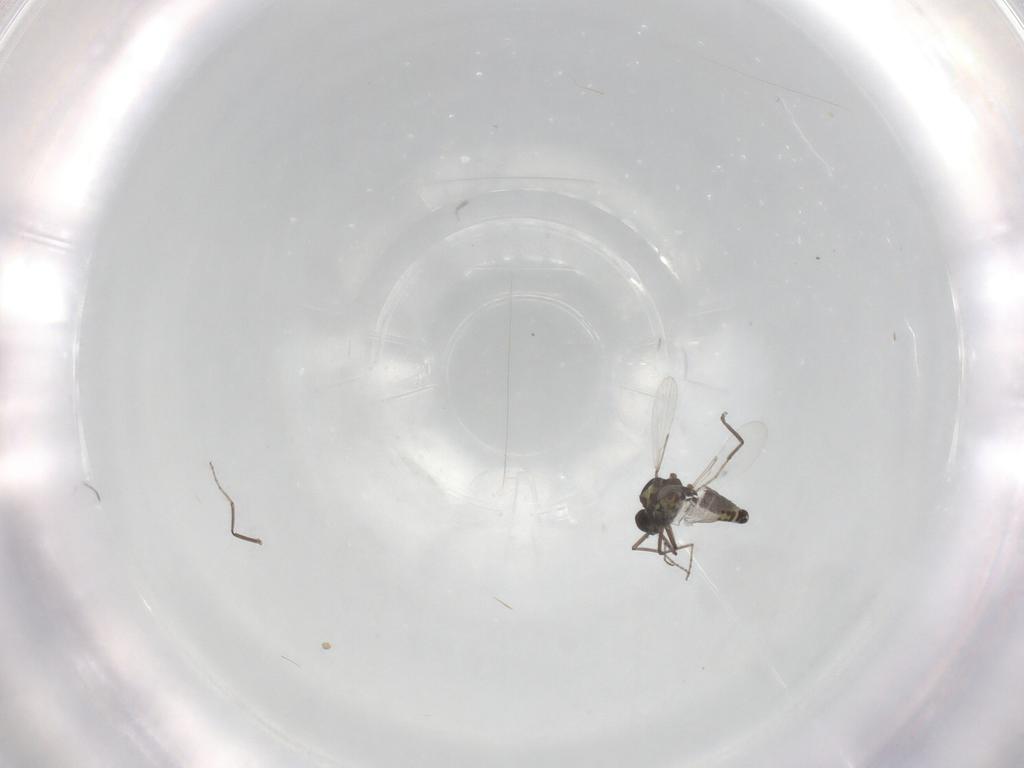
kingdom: Animalia
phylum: Arthropoda
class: Insecta
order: Diptera
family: Ceratopogonidae
